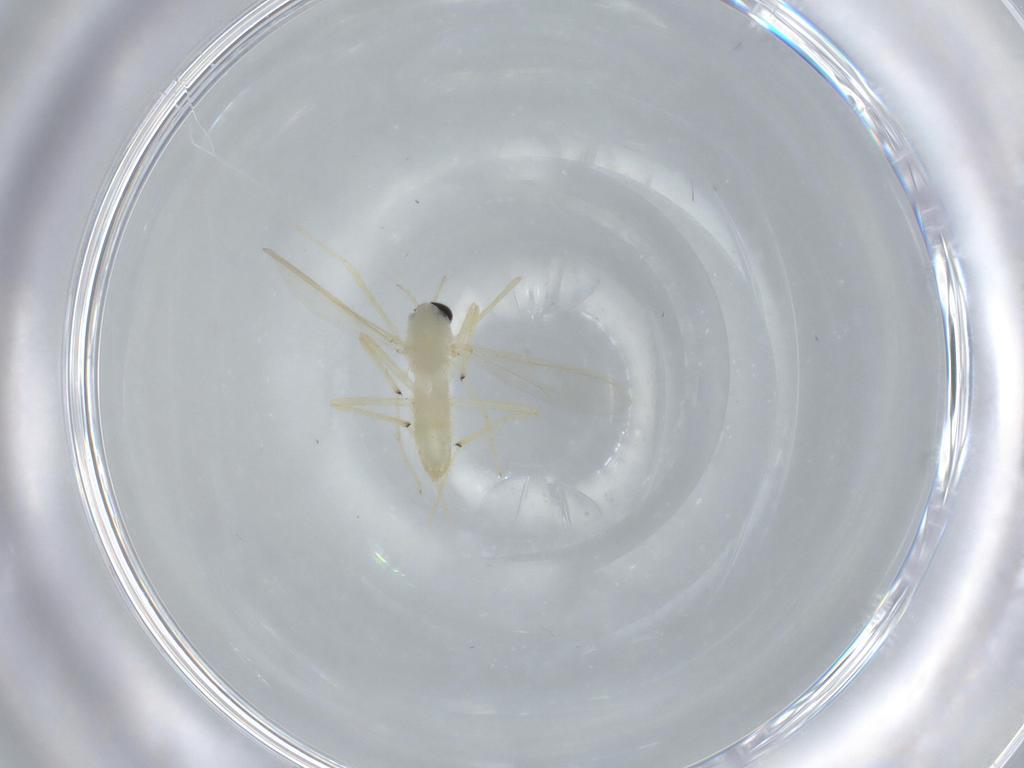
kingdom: Animalia
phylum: Arthropoda
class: Insecta
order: Diptera
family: Chironomidae
